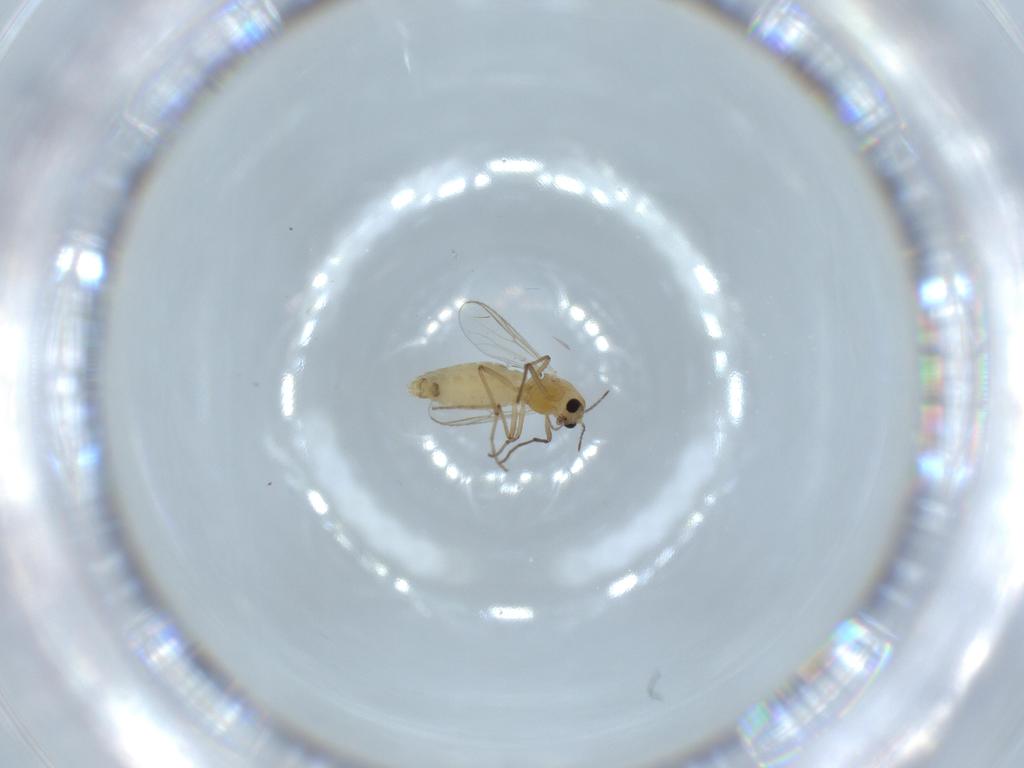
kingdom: Animalia
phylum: Arthropoda
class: Insecta
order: Diptera
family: Chironomidae
